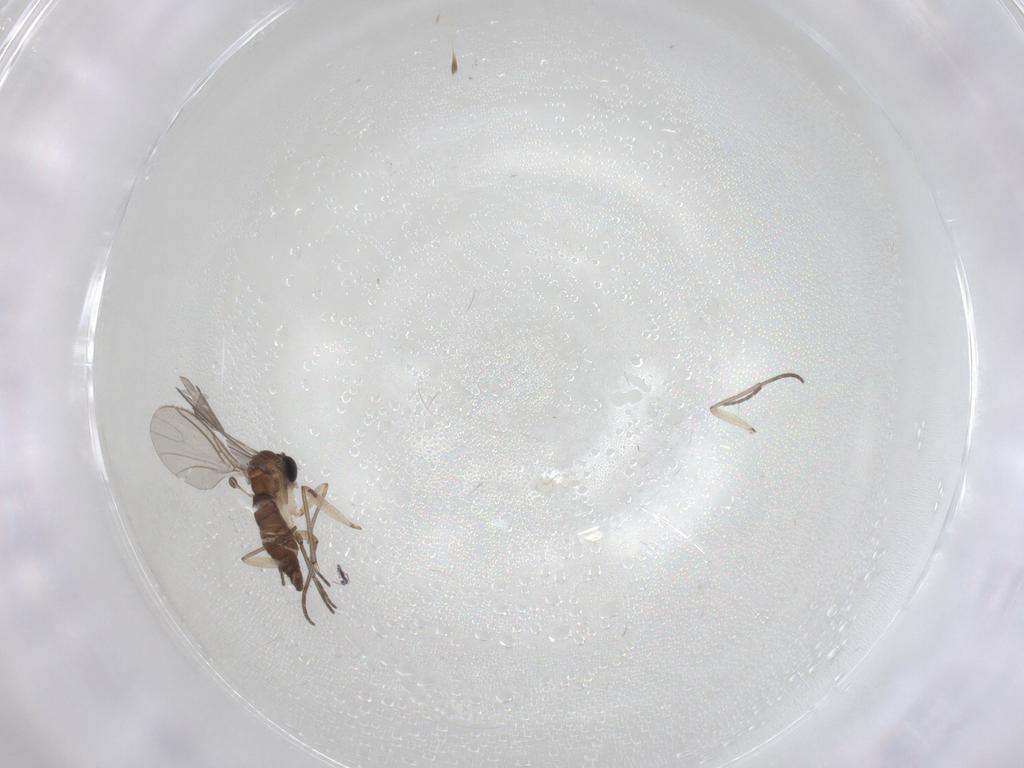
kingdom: Animalia
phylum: Arthropoda
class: Insecta
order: Diptera
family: Sciaridae
